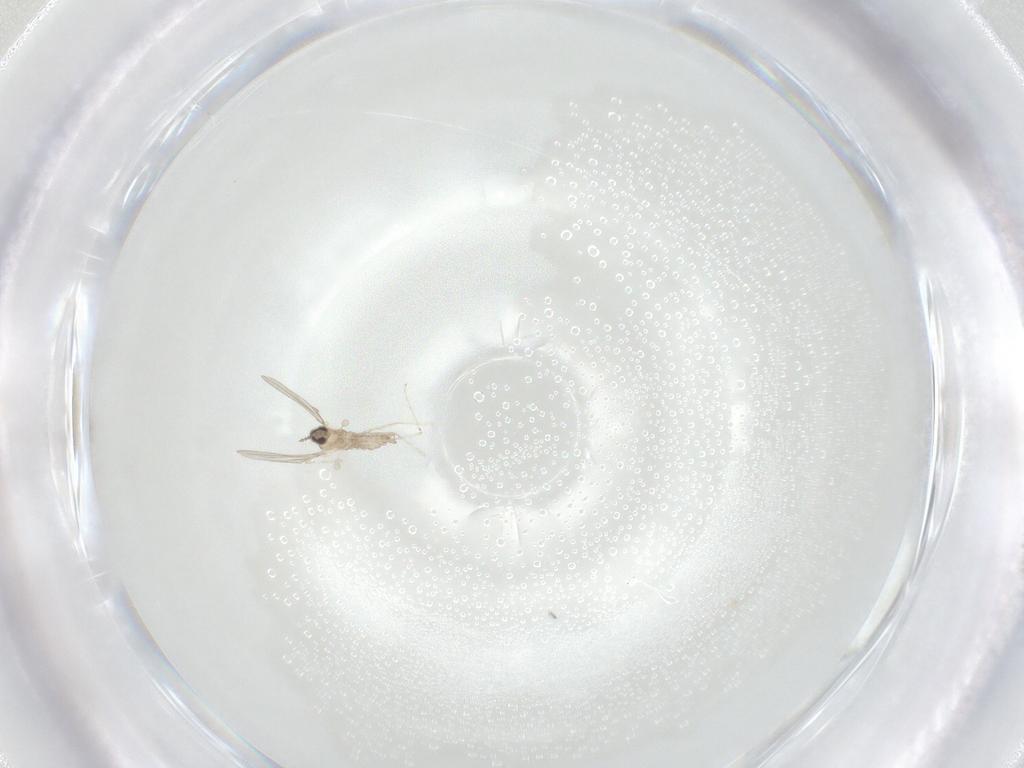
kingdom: Animalia
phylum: Arthropoda
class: Insecta
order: Diptera
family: Cecidomyiidae
